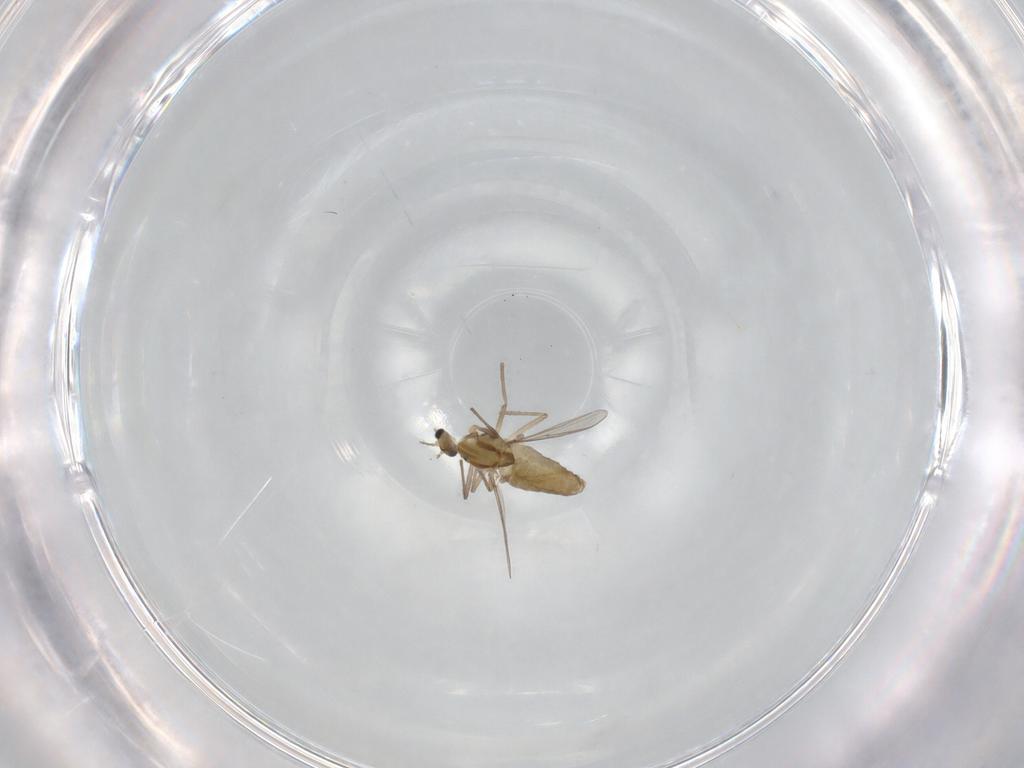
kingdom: Animalia
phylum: Arthropoda
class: Insecta
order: Diptera
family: Chironomidae
